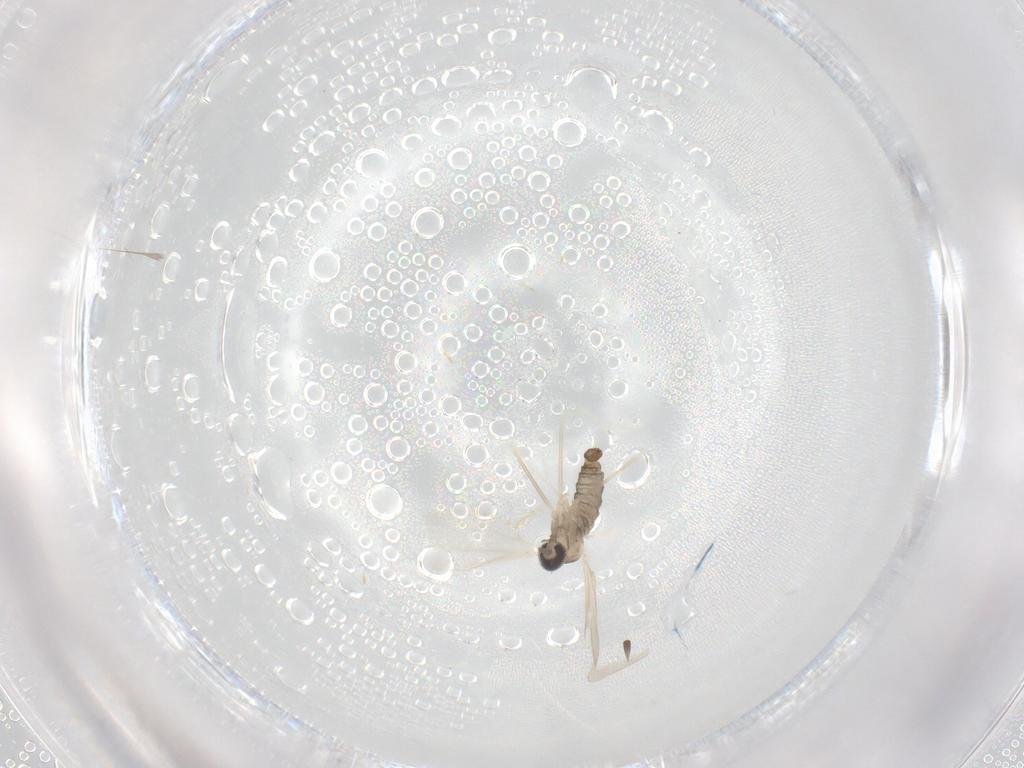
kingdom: Animalia
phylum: Arthropoda
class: Insecta
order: Diptera
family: Cecidomyiidae
